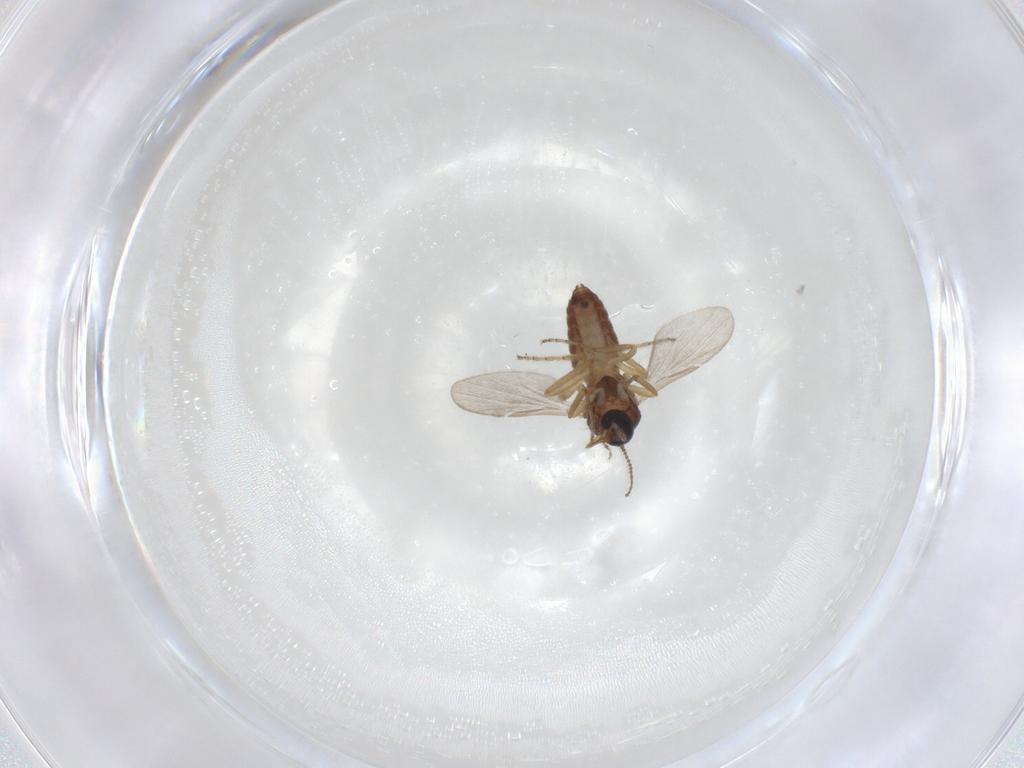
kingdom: Animalia
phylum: Arthropoda
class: Insecta
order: Diptera
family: Ceratopogonidae
